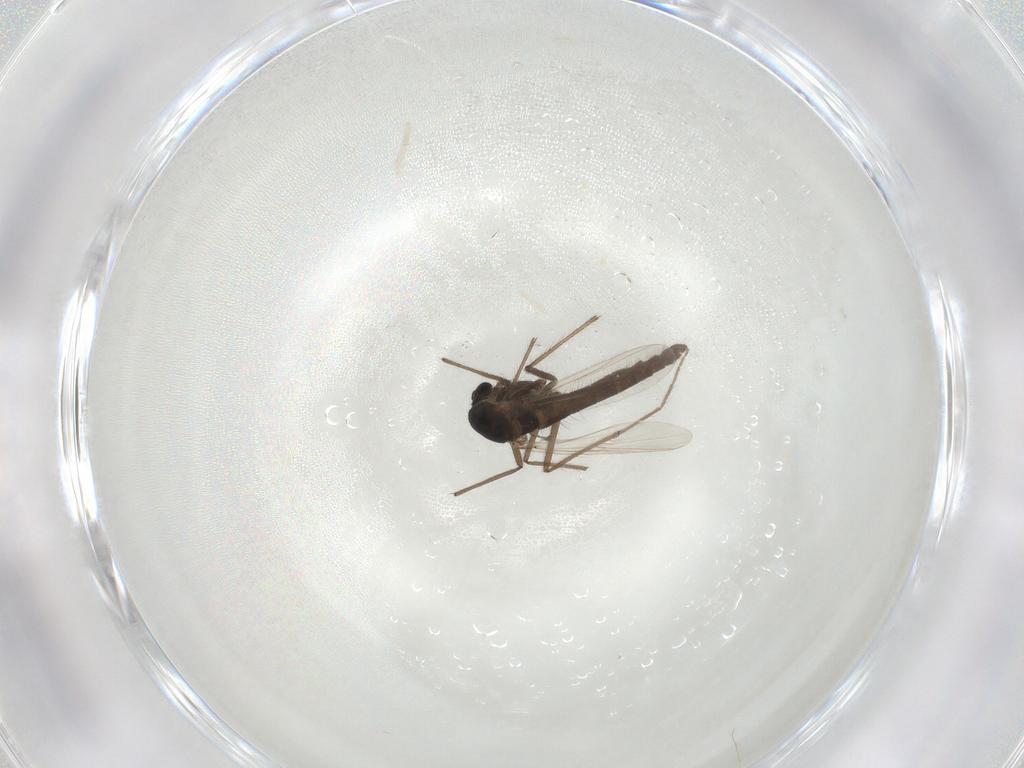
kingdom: Animalia
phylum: Arthropoda
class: Insecta
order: Diptera
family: Chironomidae
